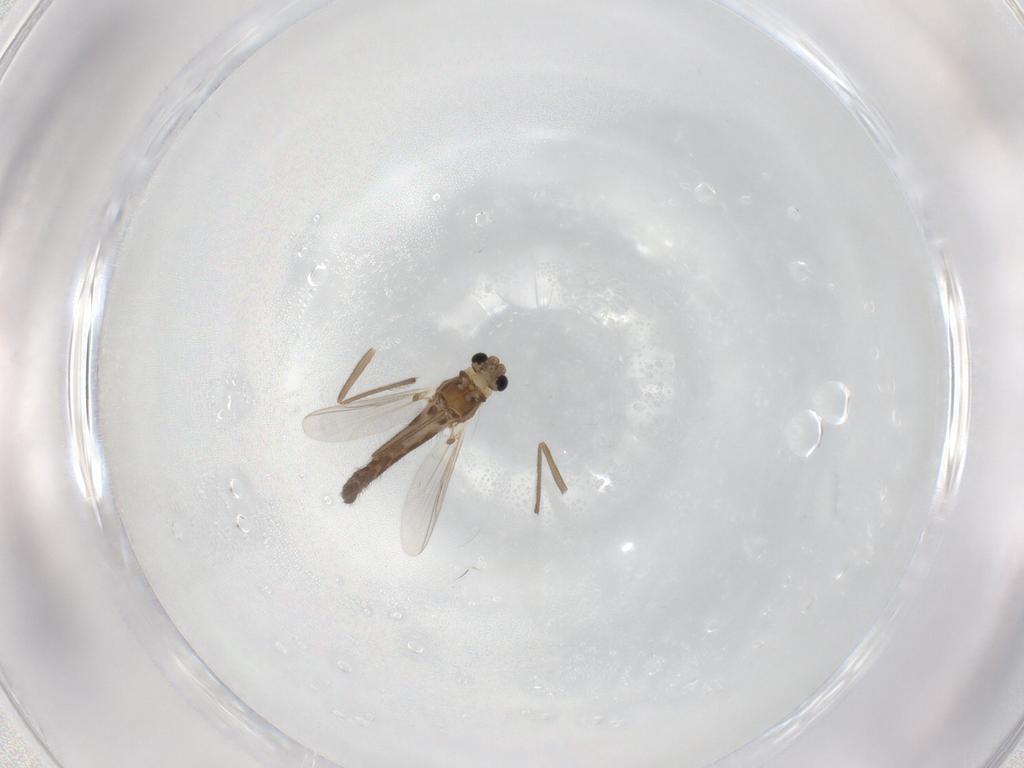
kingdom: Animalia
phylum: Arthropoda
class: Insecta
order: Diptera
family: Chironomidae
